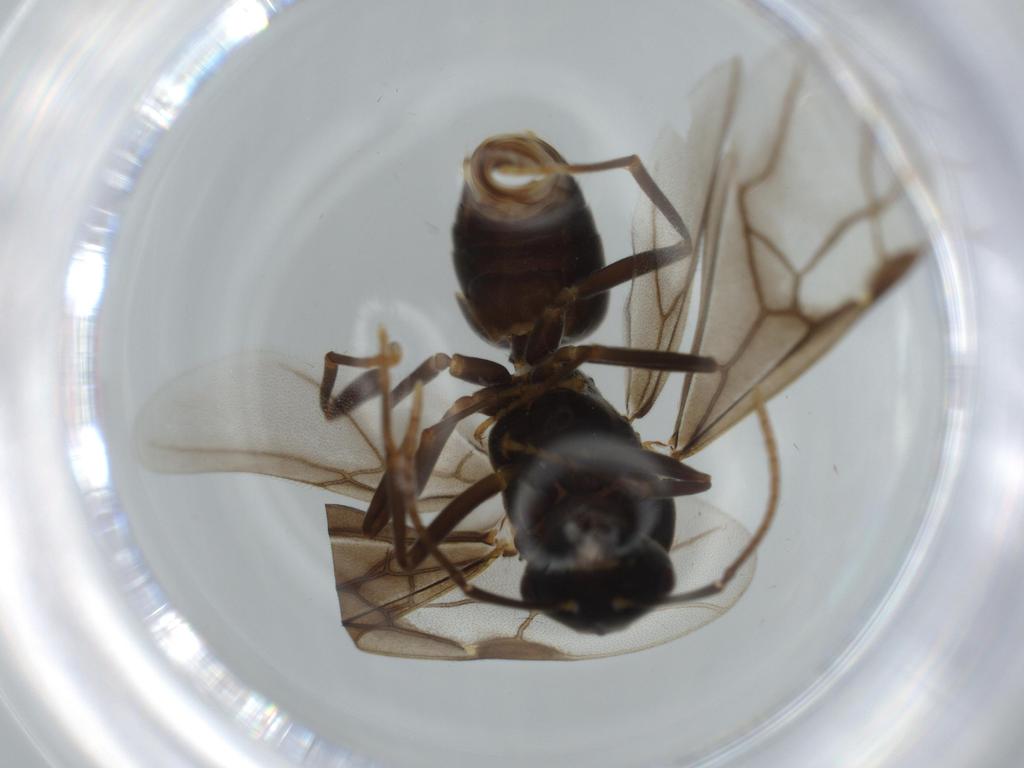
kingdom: Animalia
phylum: Arthropoda
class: Insecta
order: Hymenoptera
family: Formicidae
